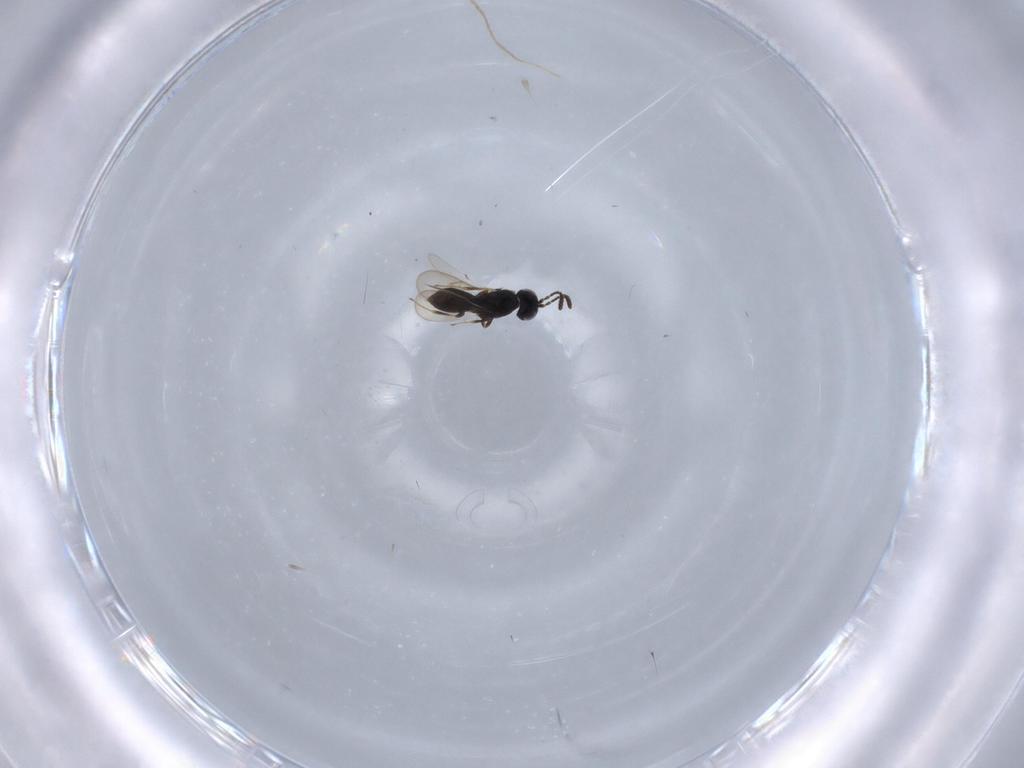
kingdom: Animalia
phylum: Arthropoda
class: Insecta
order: Hymenoptera
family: Scelionidae
